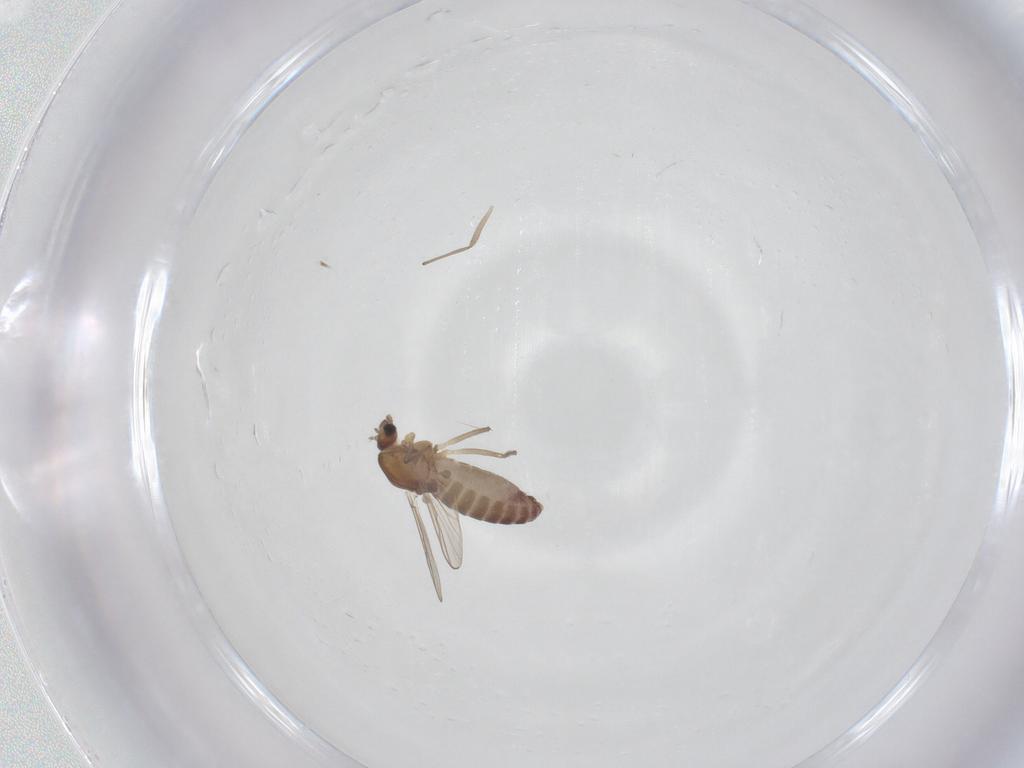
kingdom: Animalia
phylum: Arthropoda
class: Insecta
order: Diptera
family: Chironomidae
